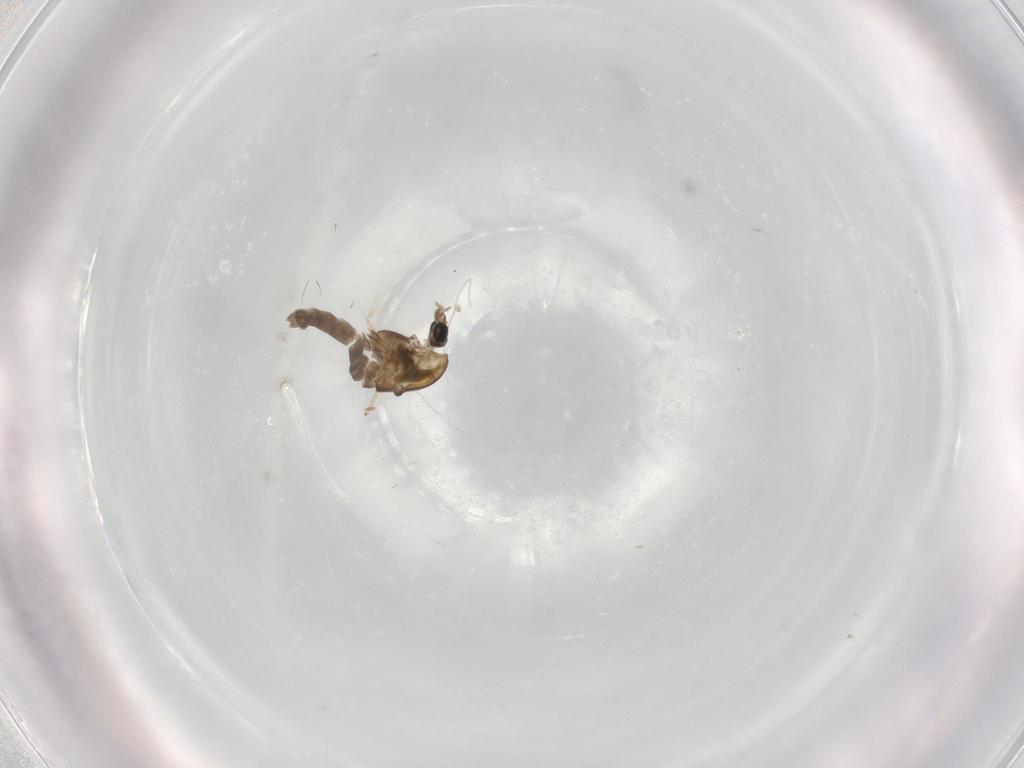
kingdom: Animalia
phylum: Arthropoda
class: Insecta
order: Diptera
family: Chironomidae
